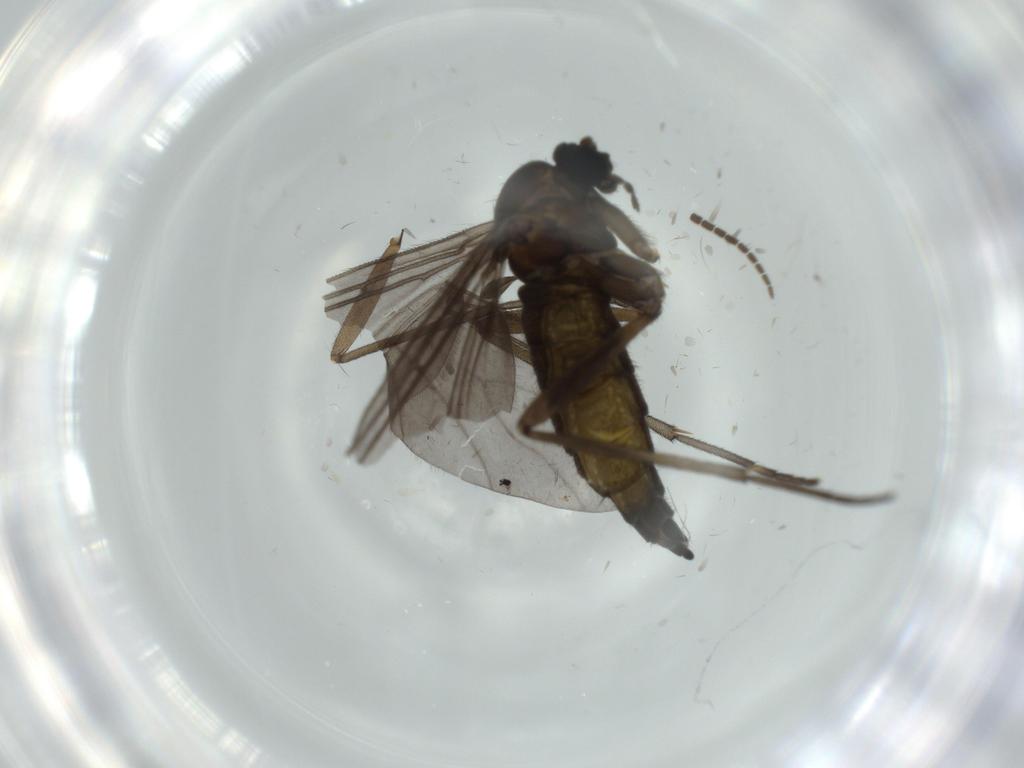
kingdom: Animalia
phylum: Arthropoda
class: Insecta
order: Diptera
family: Sciaridae
